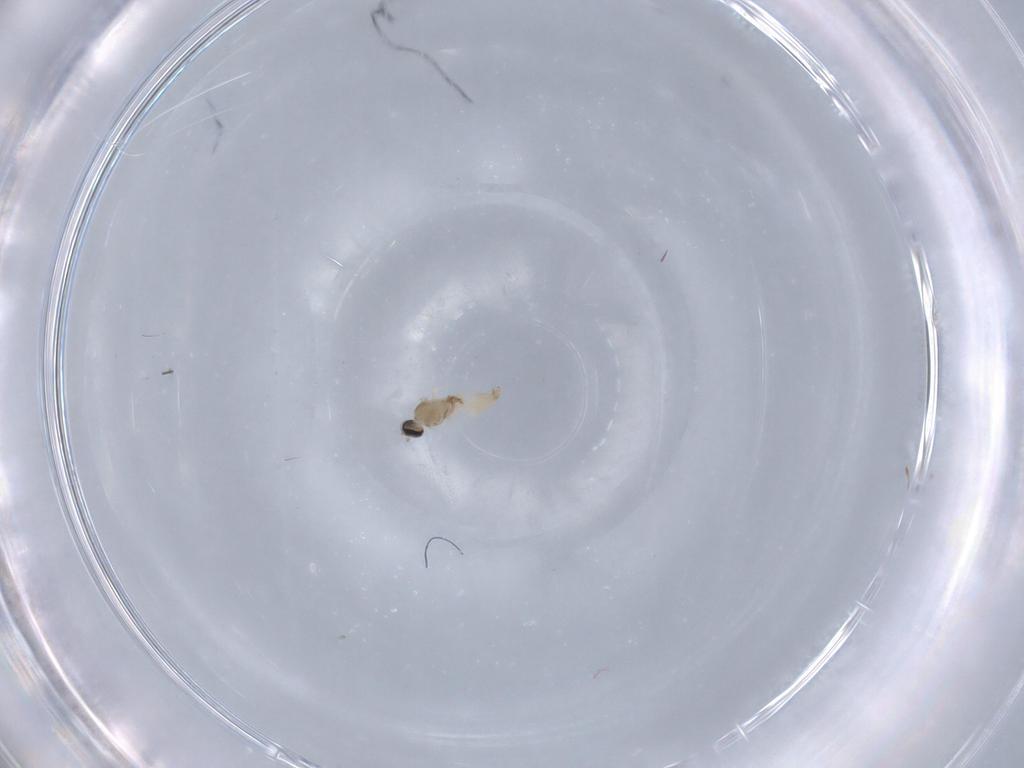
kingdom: Animalia
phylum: Arthropoda
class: Insecta
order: Diptera
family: Cecidomyiidae
